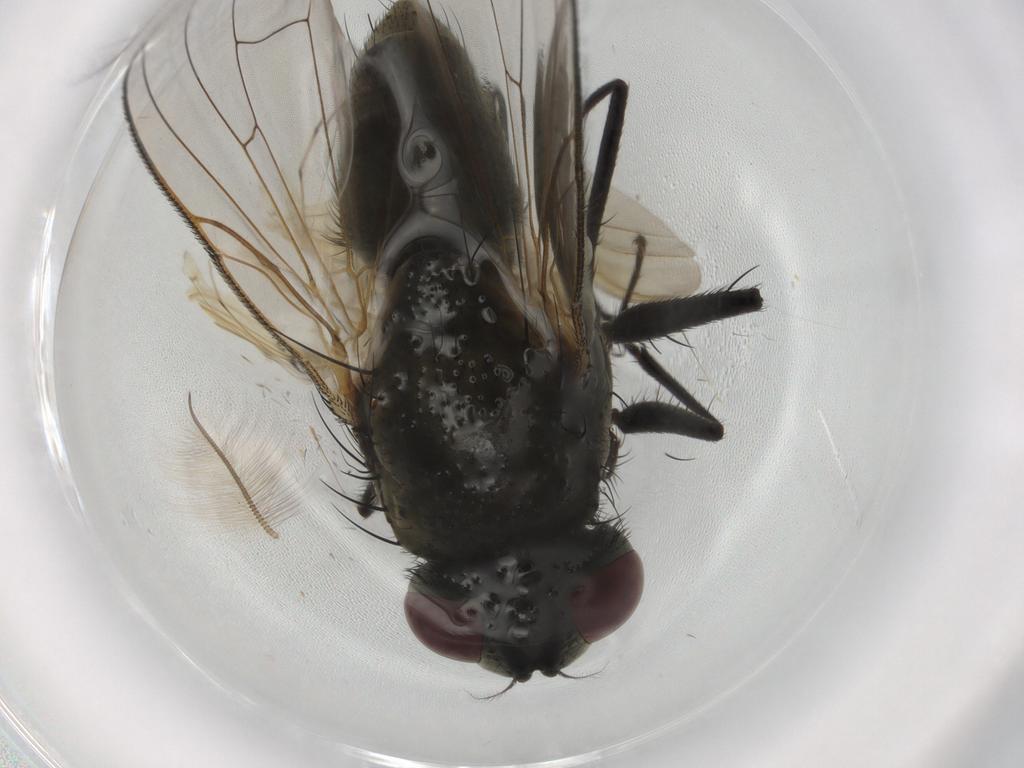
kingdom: Animalia
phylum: Arthropoda
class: Insecta
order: Diptera
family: Muscidae
